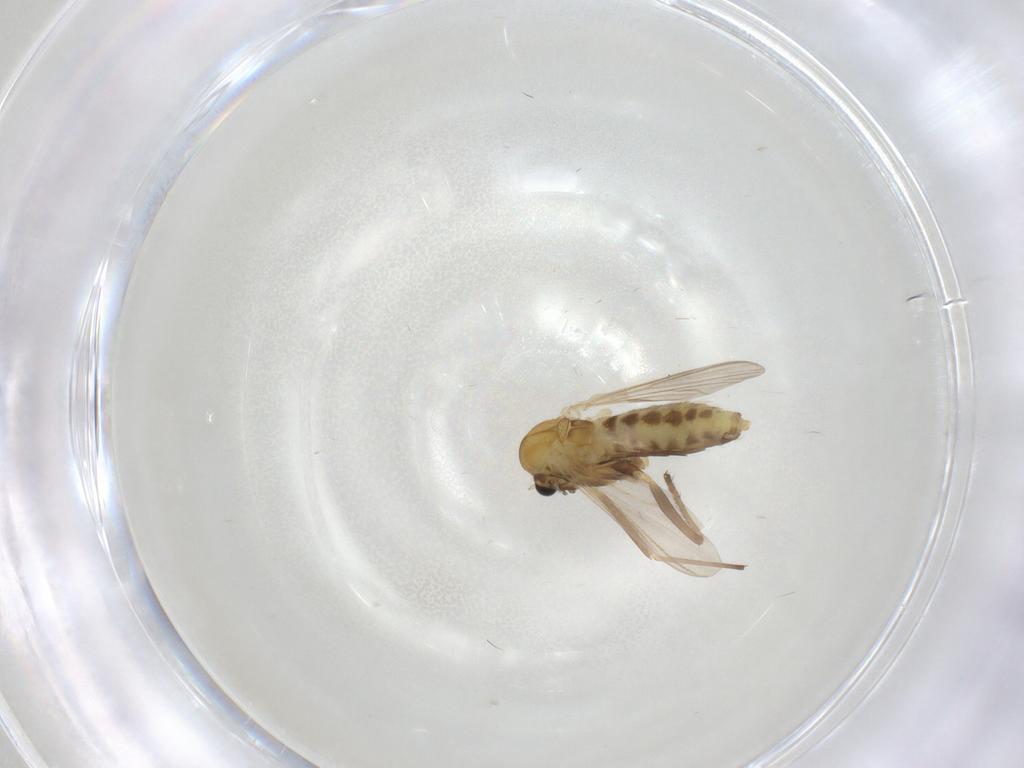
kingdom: Animalia
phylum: Arthropoda
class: Insecta
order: Diptera
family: Chironomidae
